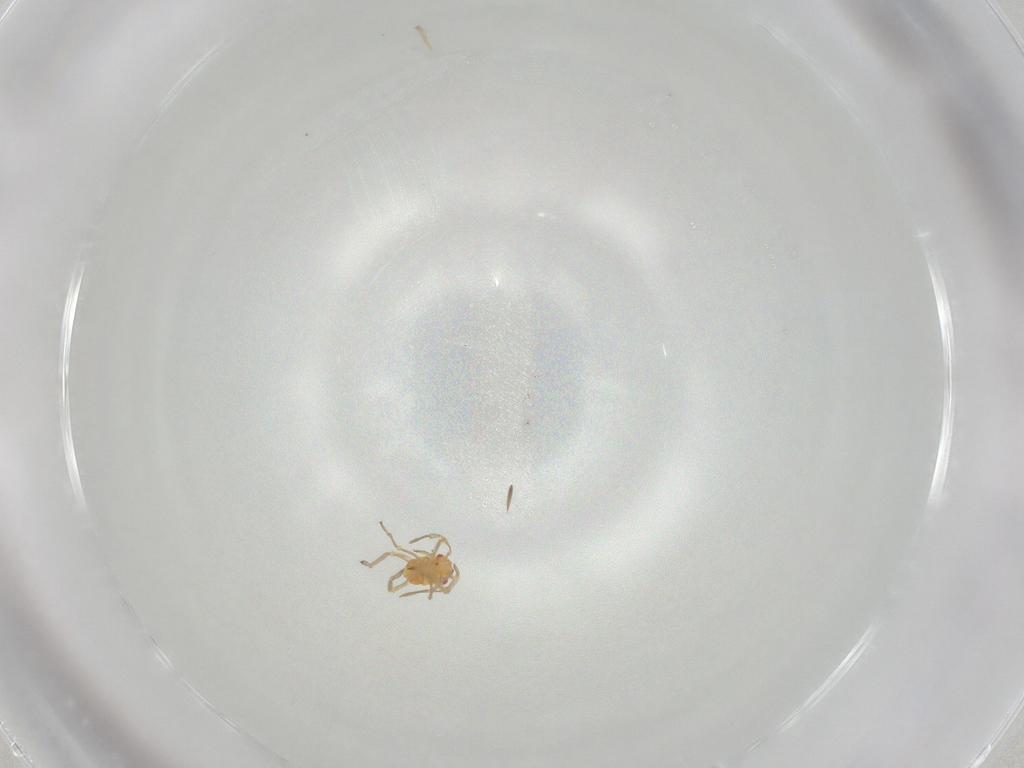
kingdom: Animalia
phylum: Arthropoda
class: Insecta
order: Hemiptera
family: Miridae
